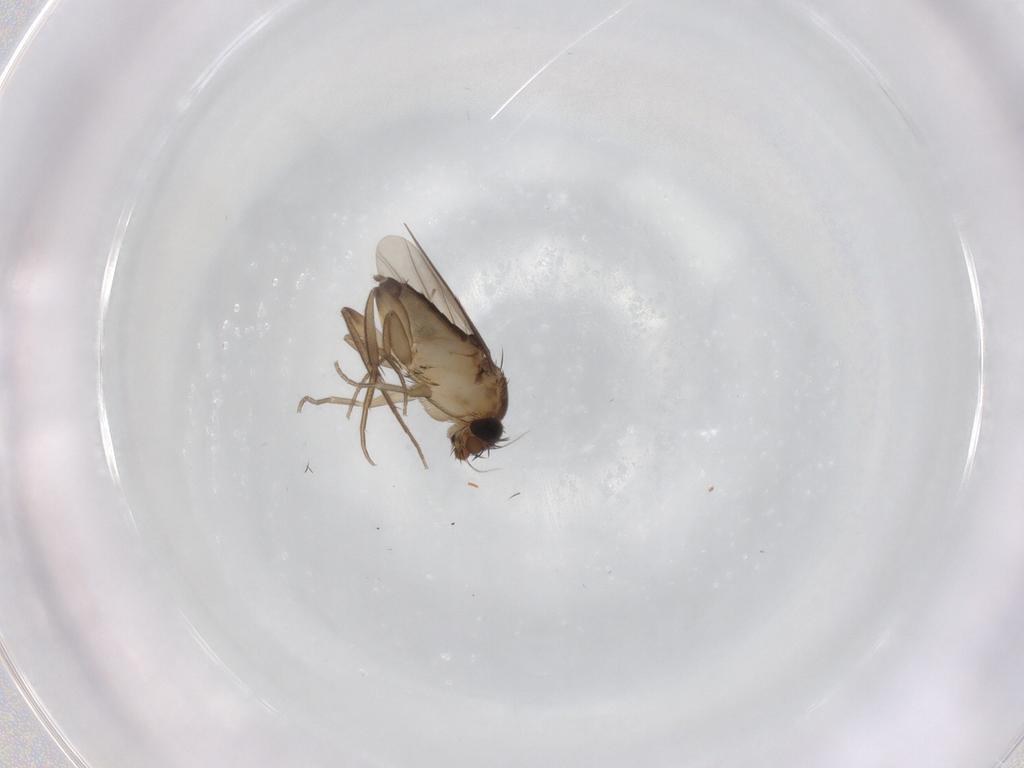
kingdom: Animalia
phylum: Arthropoda
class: Insecta
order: Diptera
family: Phoridae
